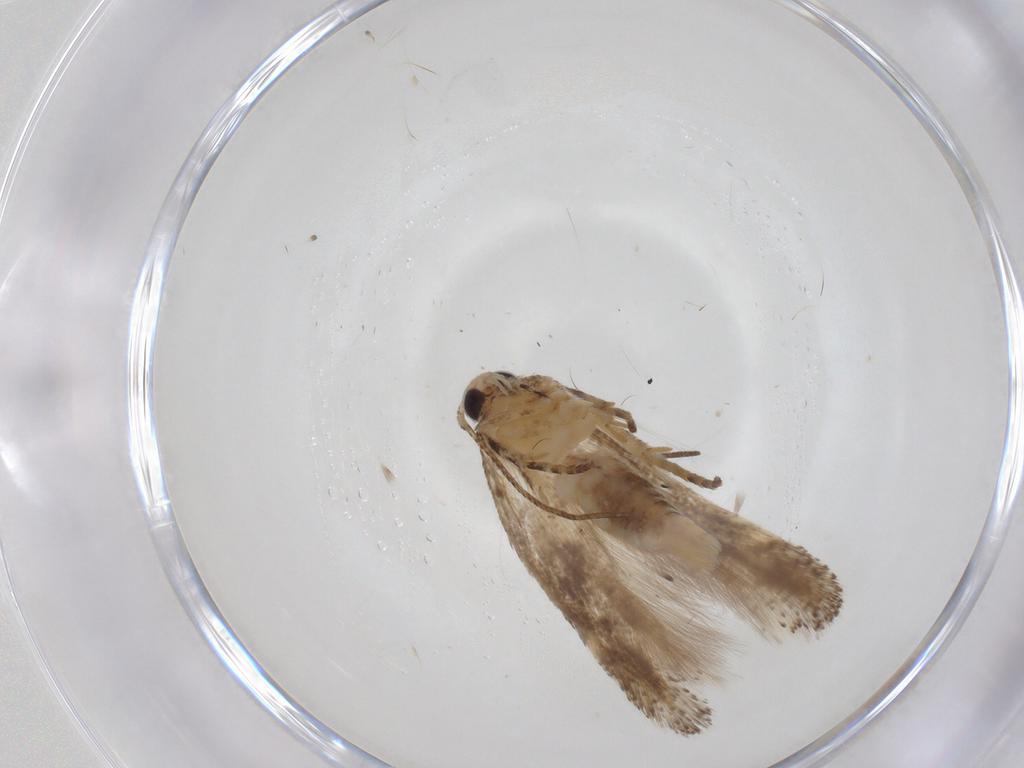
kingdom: Animalia
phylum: Arthropoda
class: Insecta
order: Lepidoptera
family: Gelechiidae
